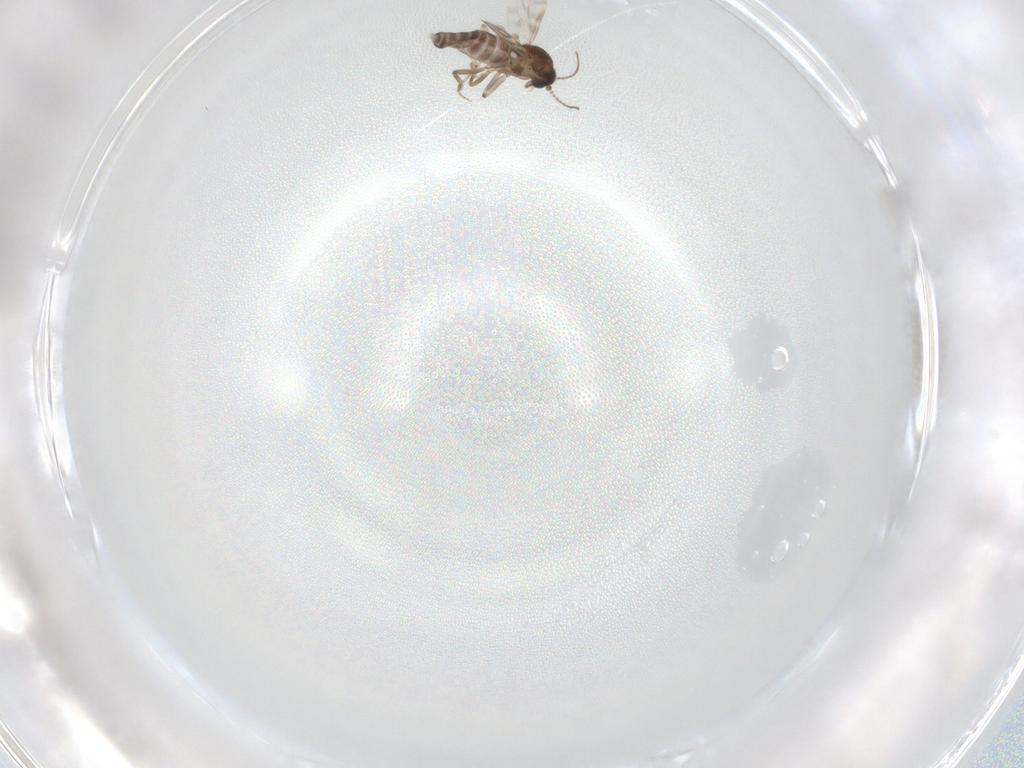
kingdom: Animalia
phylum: Arthropoda
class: Insecta
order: Diptera
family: Ceratopogonidae
